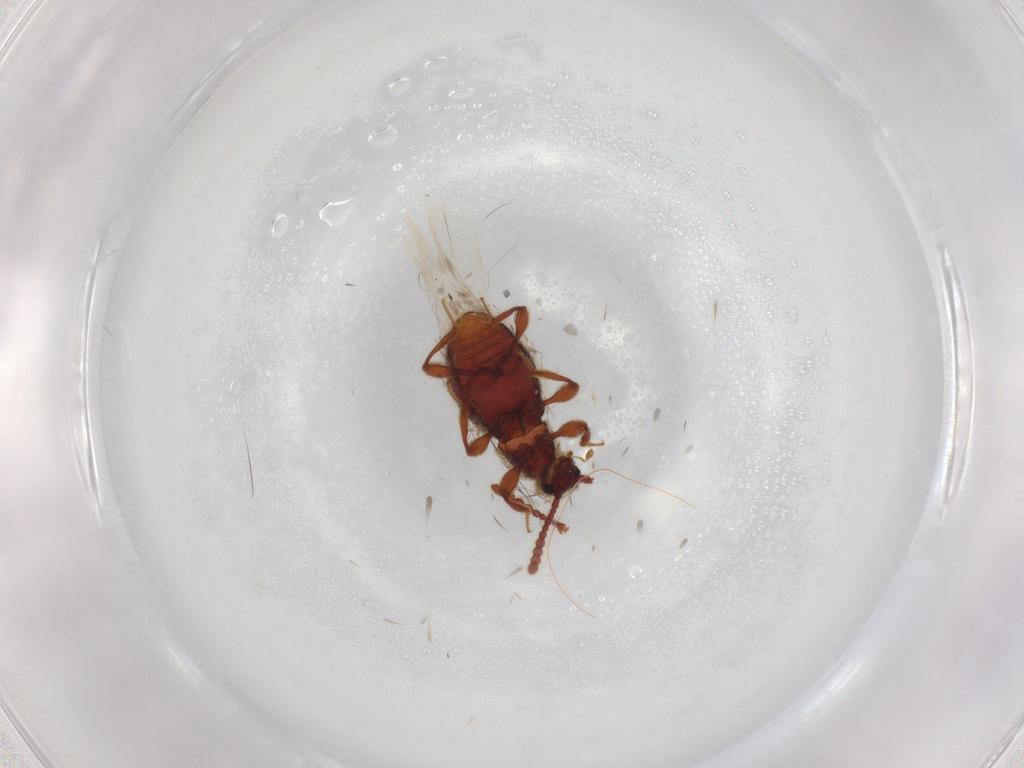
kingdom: Animalia
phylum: Arthropoda
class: Insecta
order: Coleoptera
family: Staphylinidae
